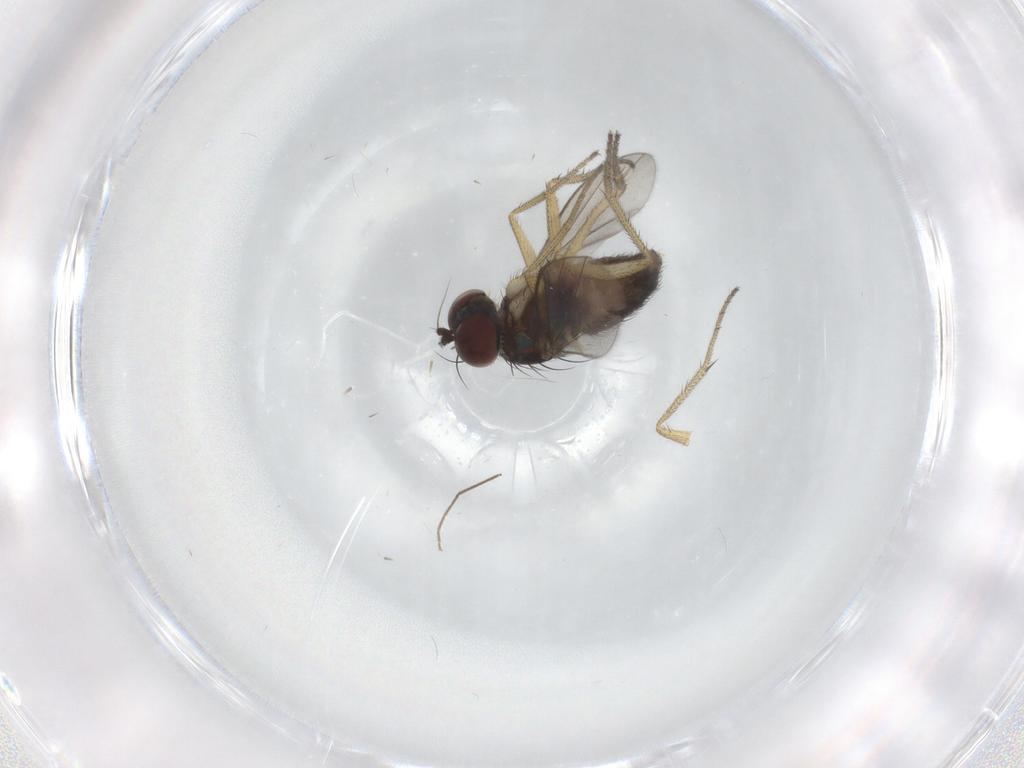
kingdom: Animalia
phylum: Arthropoda
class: Insecta
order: Diptera
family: Chironomidae
